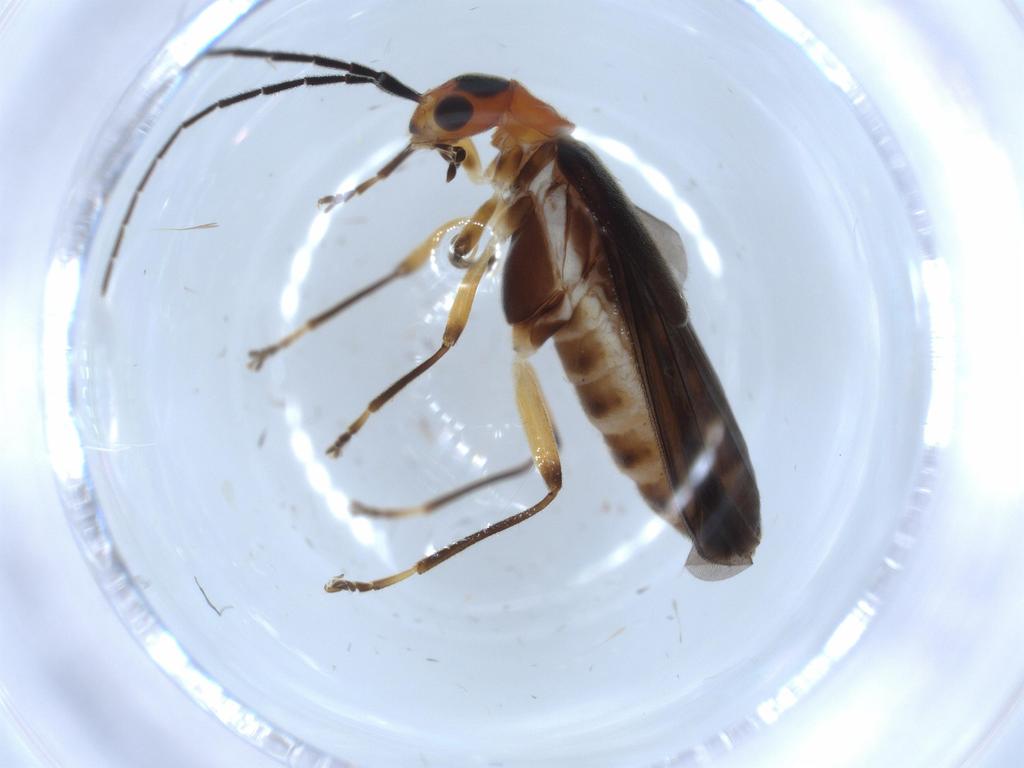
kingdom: Animalia
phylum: Arthropoda
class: Insecta
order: Coleoptera
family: Cantharidae
